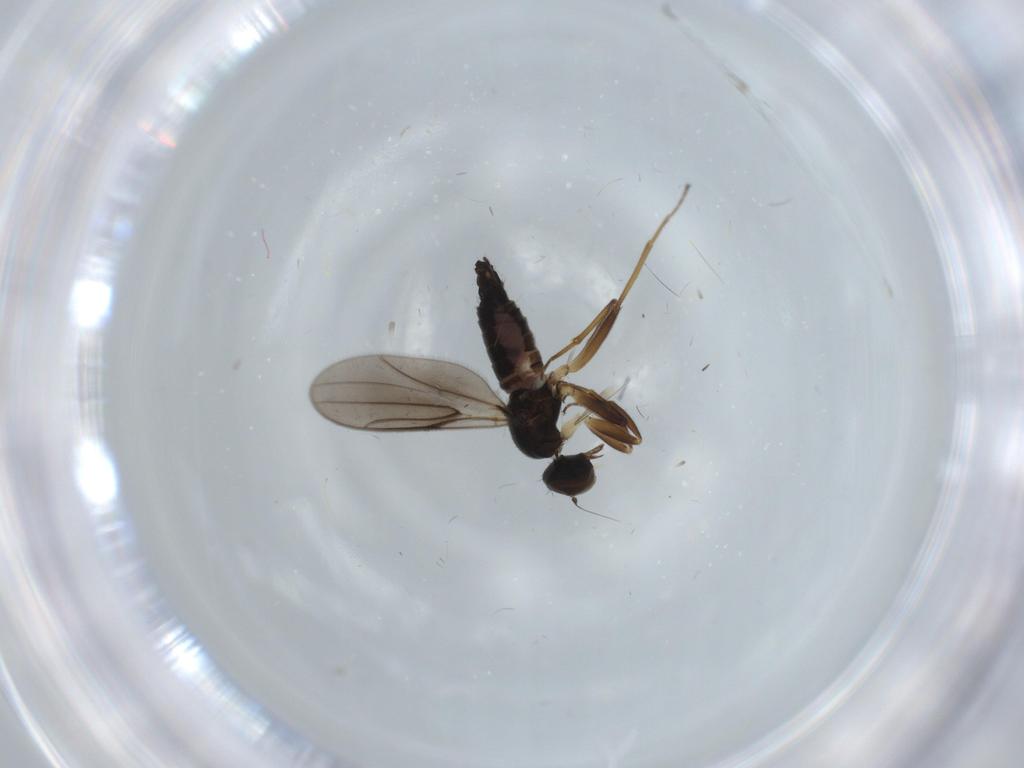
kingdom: Animalia
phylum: Arthropoda
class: Insecta
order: Diptera
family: Hybotidae
